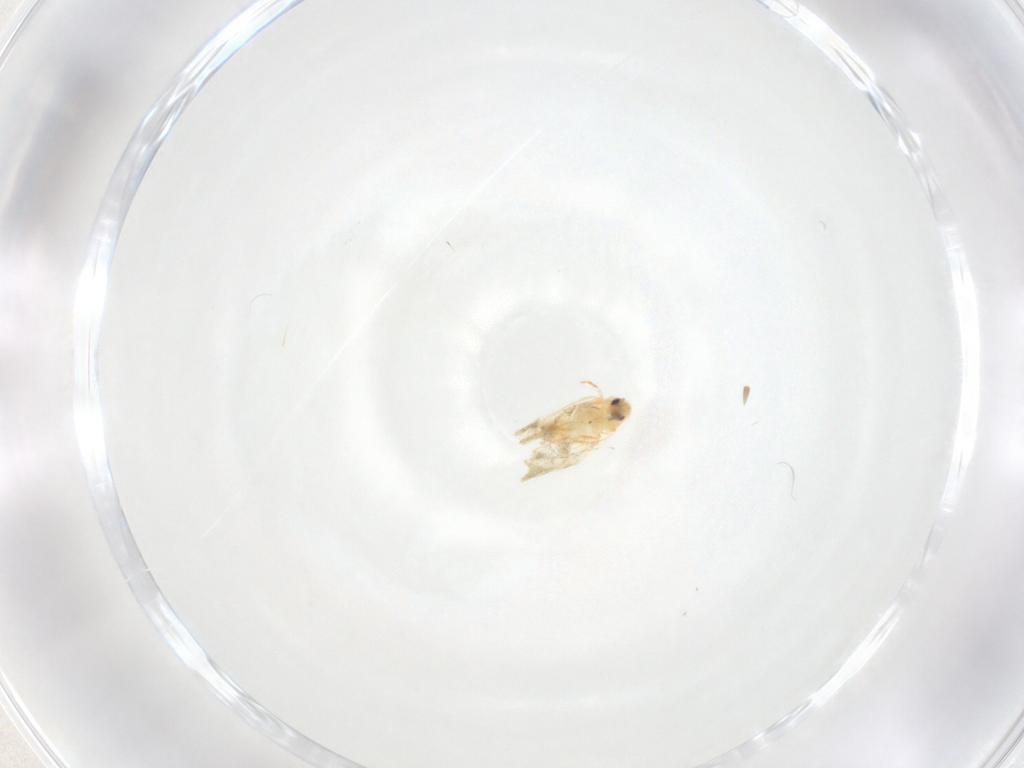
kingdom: Animalia
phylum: Arthropoda
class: Insecta
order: Hemiptera
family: Aleyrodidae
